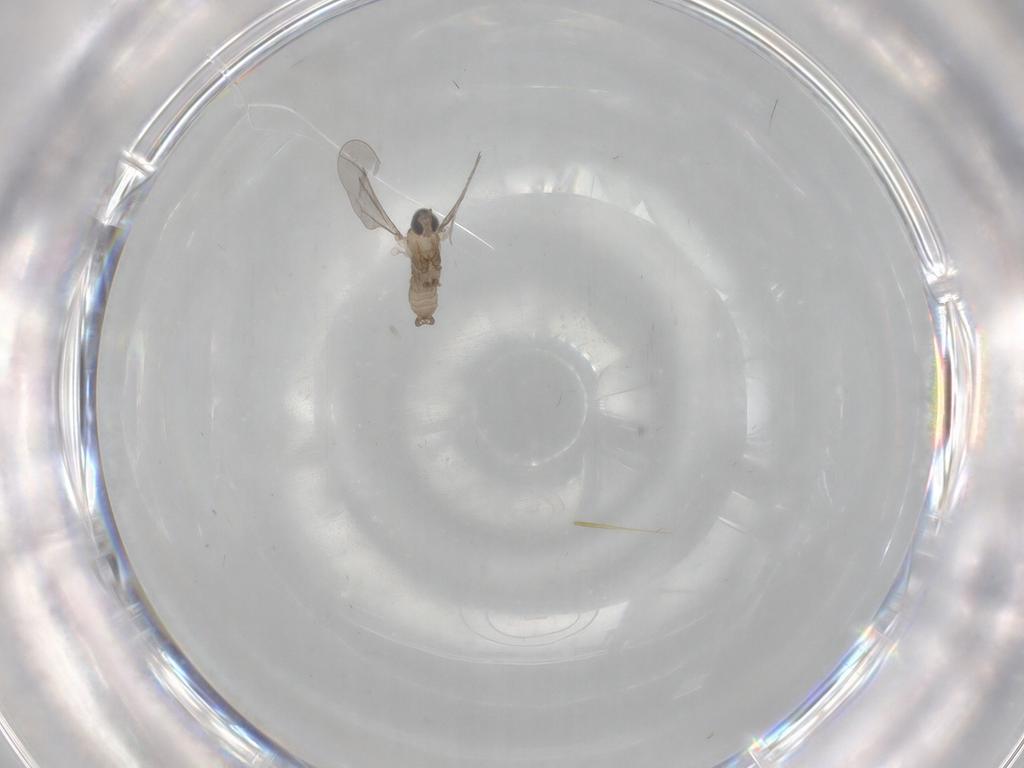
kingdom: Animalia
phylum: Arthropoda
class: Insecta
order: Diptera
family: Cecidomyiidae
